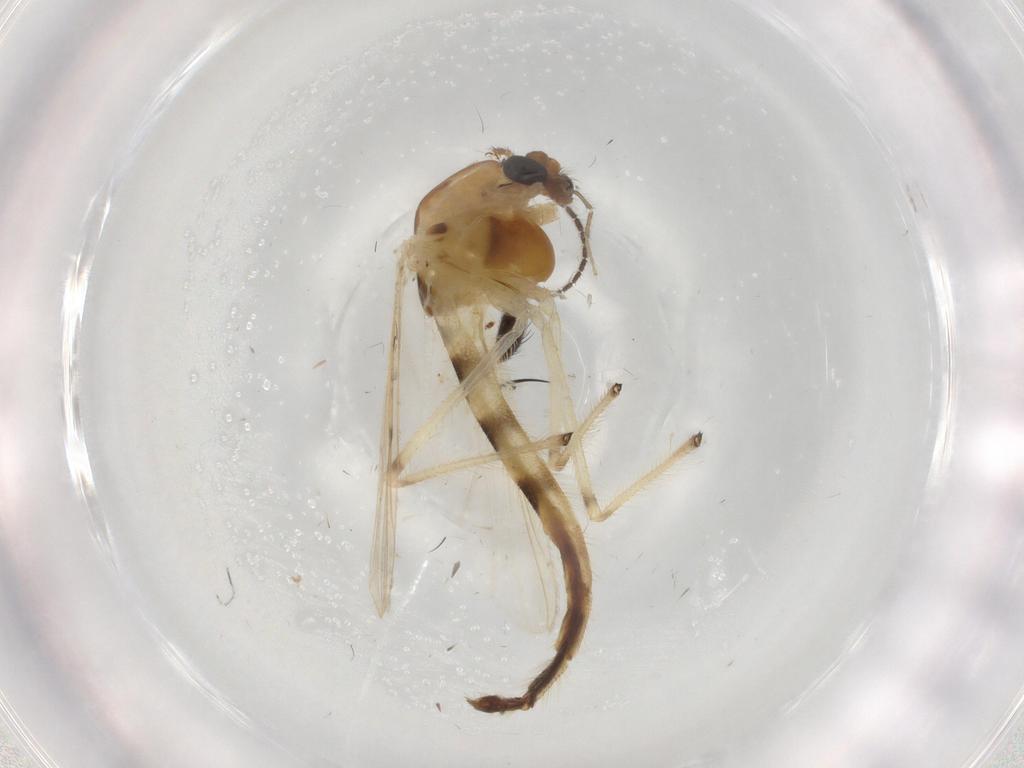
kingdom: Animalia
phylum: Arthropoda
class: Insecta
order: Diptera
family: Chironomidae
